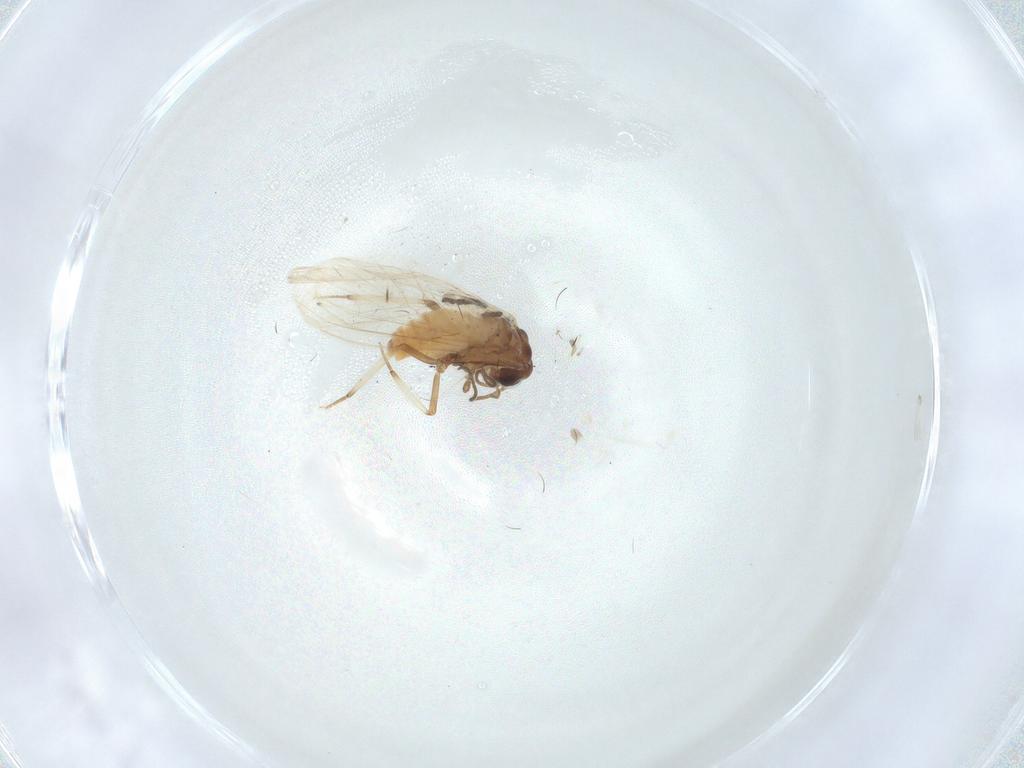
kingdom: Animalia
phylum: Arthropoda
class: Insecta
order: Neuroptera
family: Coniopterygidae
